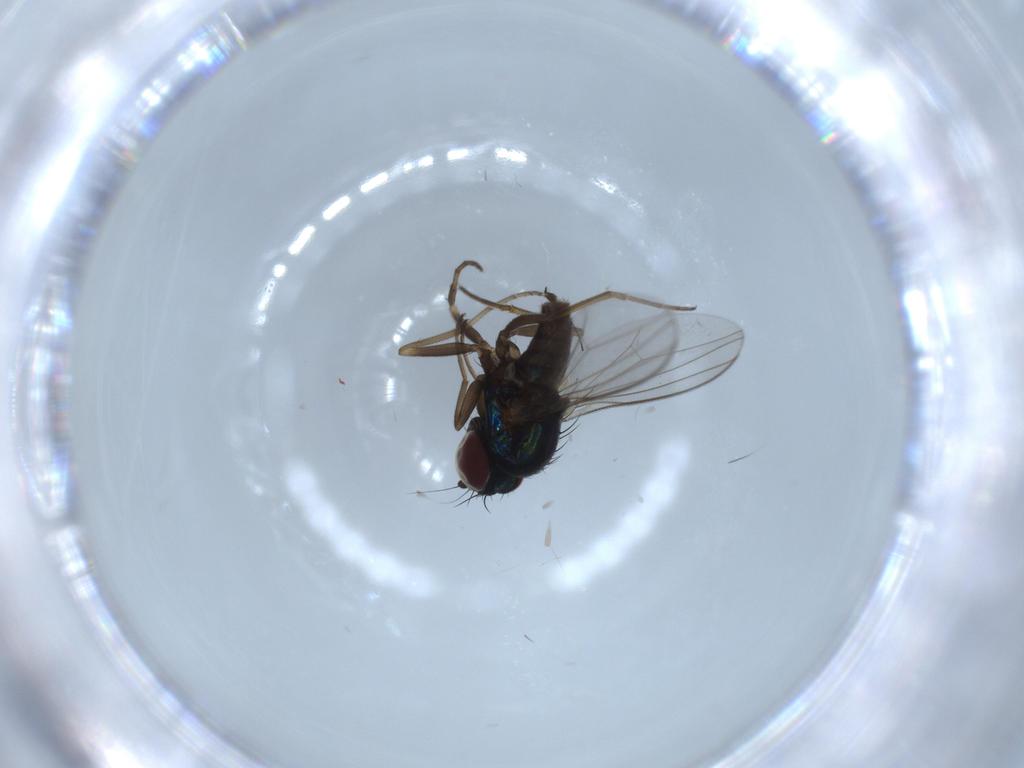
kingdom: Animalia
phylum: Arthropoda
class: Insecta
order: Diptera
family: Dolichopodidae
